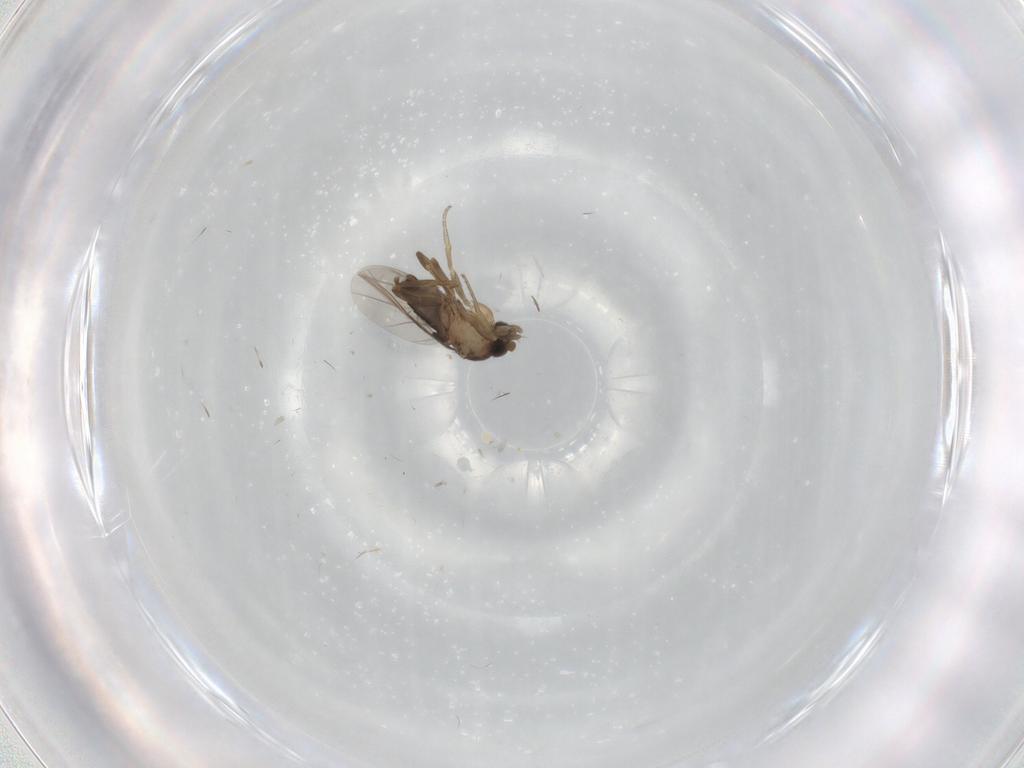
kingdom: Animalia
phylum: Arthropoda
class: Insecta
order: Diptera
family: Phoridae
